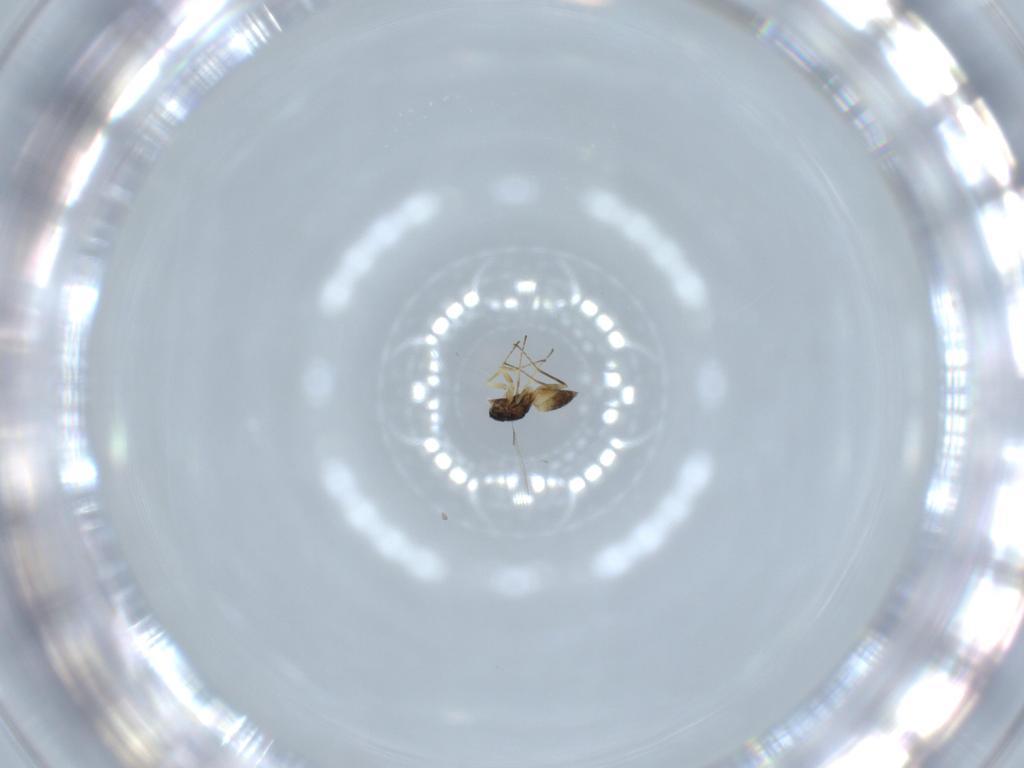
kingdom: Animalia
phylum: Arthropoda
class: Insecta
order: Hymenoptera
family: Mymaridae
